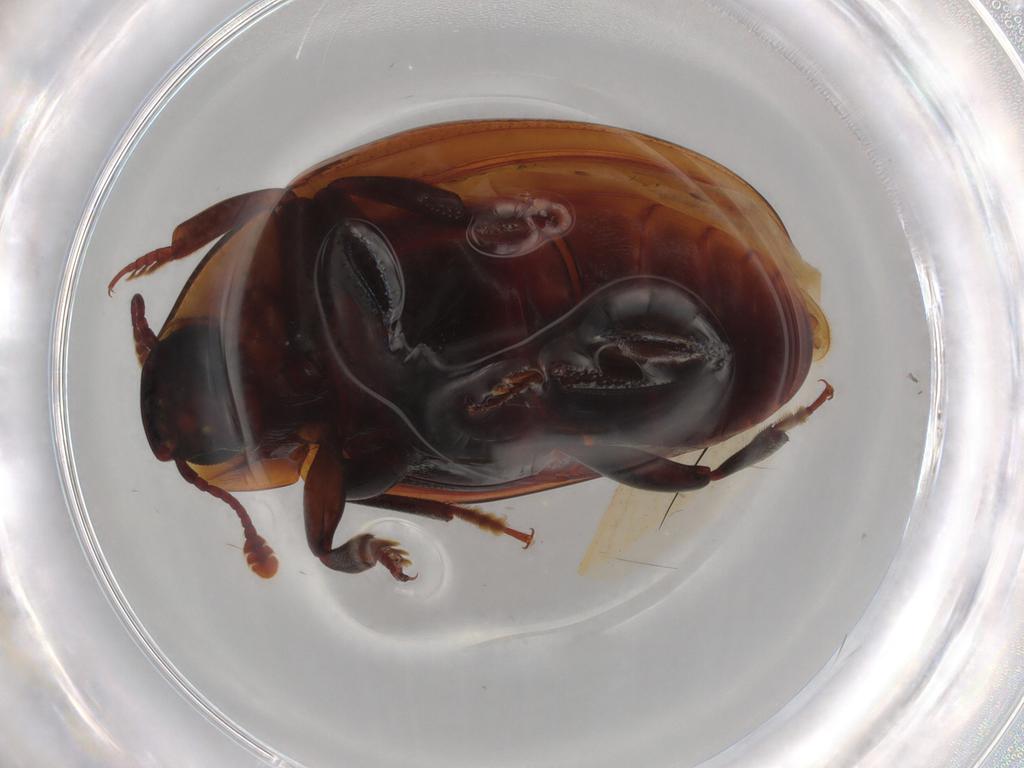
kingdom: Animalia
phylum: Arthropoda
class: Insecta
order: Coleoptera
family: Zopheridae
